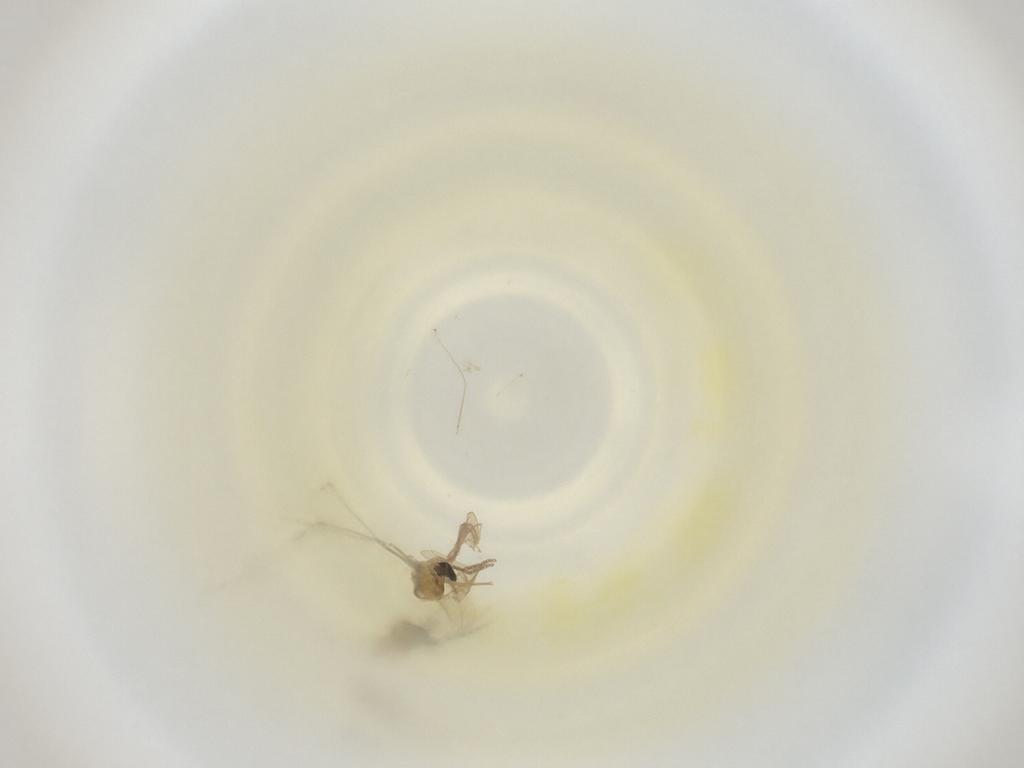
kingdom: Animalia
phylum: Arthropoda
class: Insecta
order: Diptera
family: Cecidomyiidae
